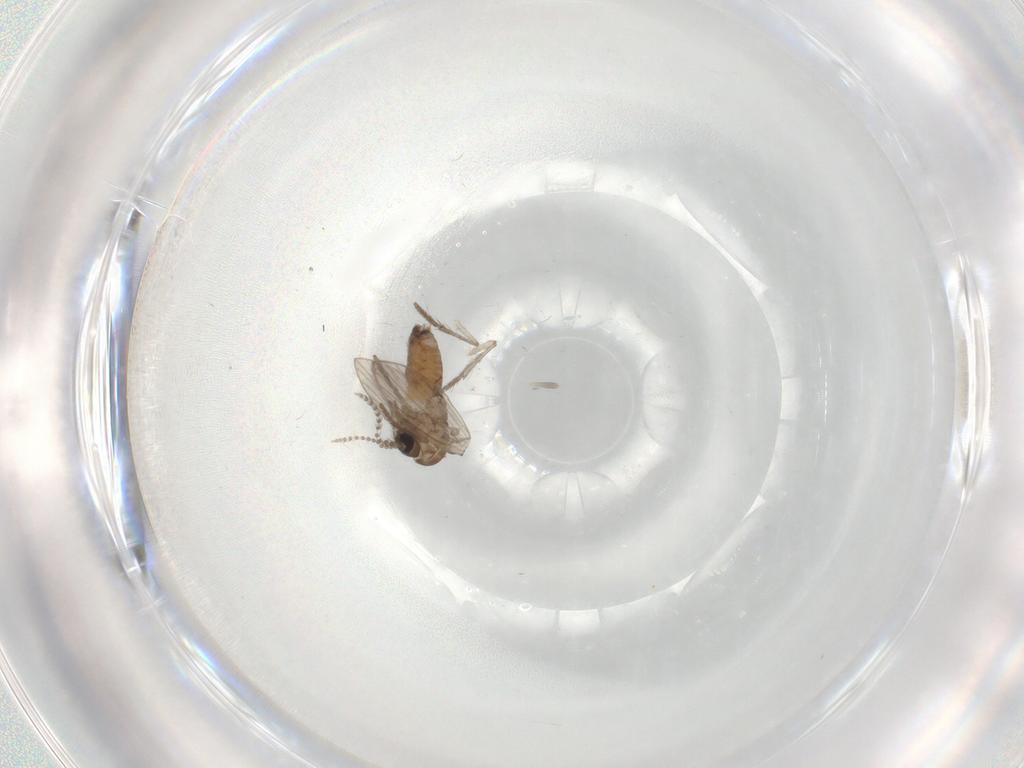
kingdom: Animalia
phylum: Arthropoda
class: Insecta
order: Diptera
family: Psychodidae
